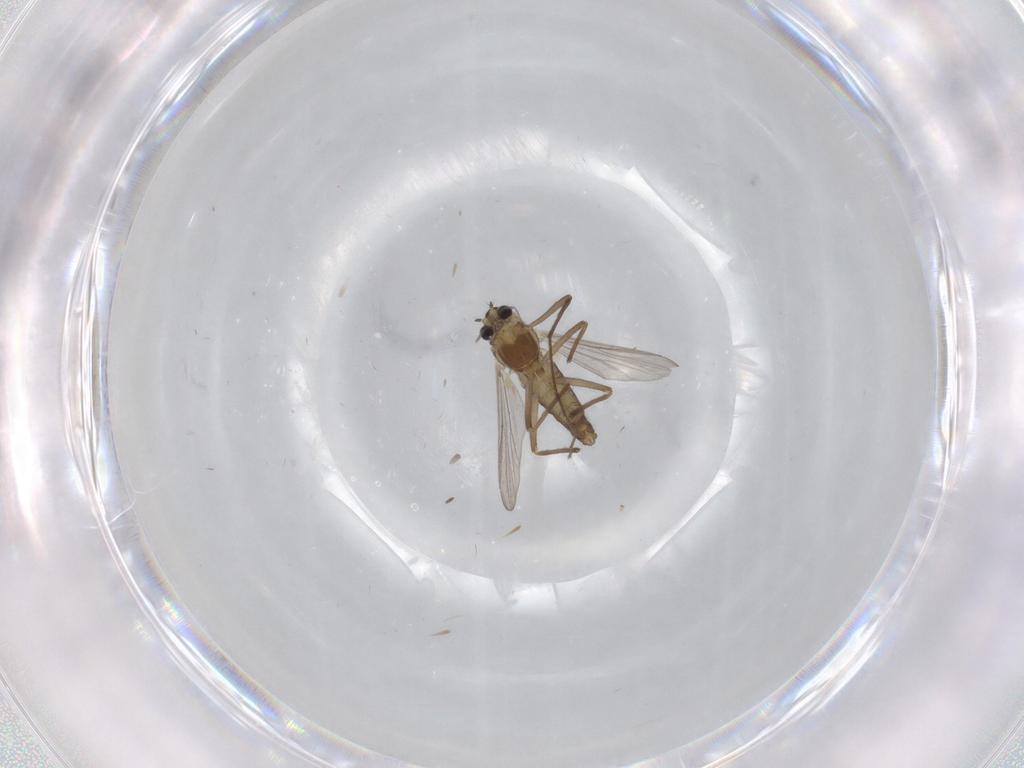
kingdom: Animalia
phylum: Arthropoda
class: Insecta
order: Diptera
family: Chironomidae
